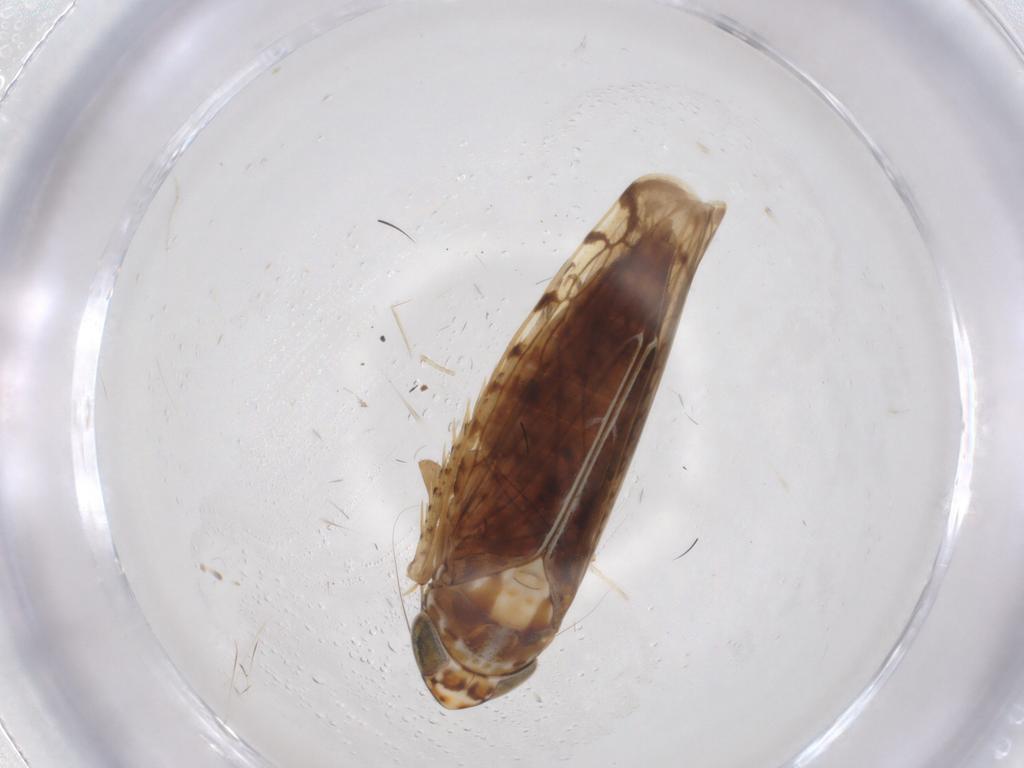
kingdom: Animalia
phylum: Arthropoda
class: Insecta
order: Hemiptera
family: Cicadellidae
